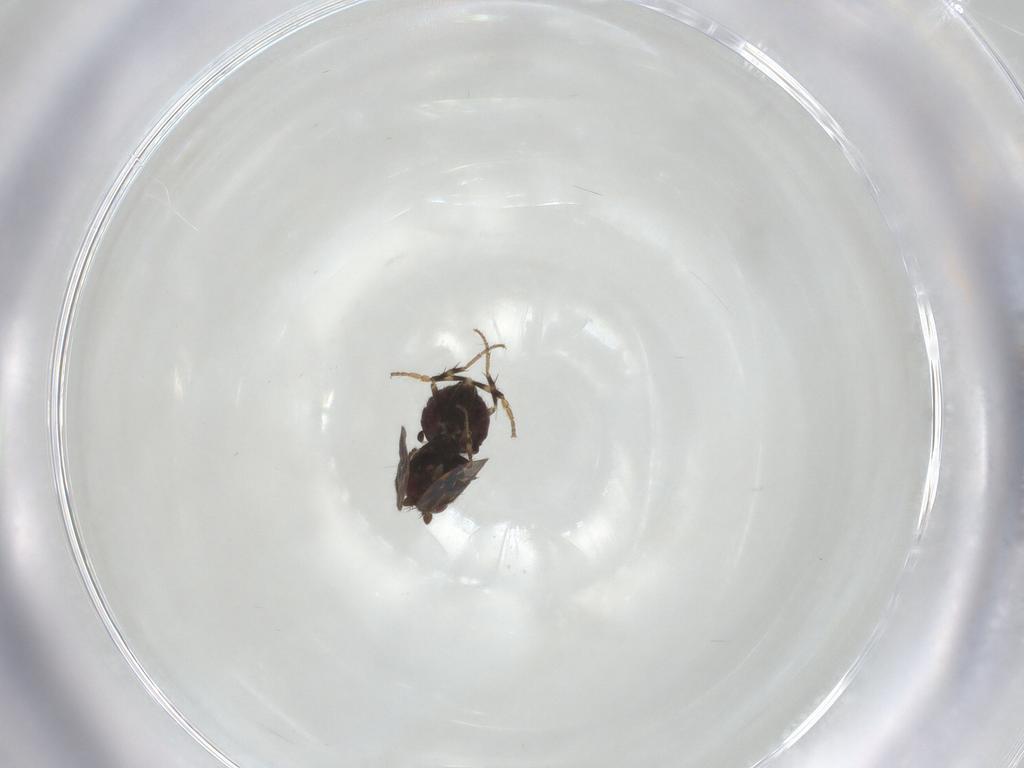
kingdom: Animalia
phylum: Arthropoda
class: Insecta
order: Diptera
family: Sphaeroceridae
